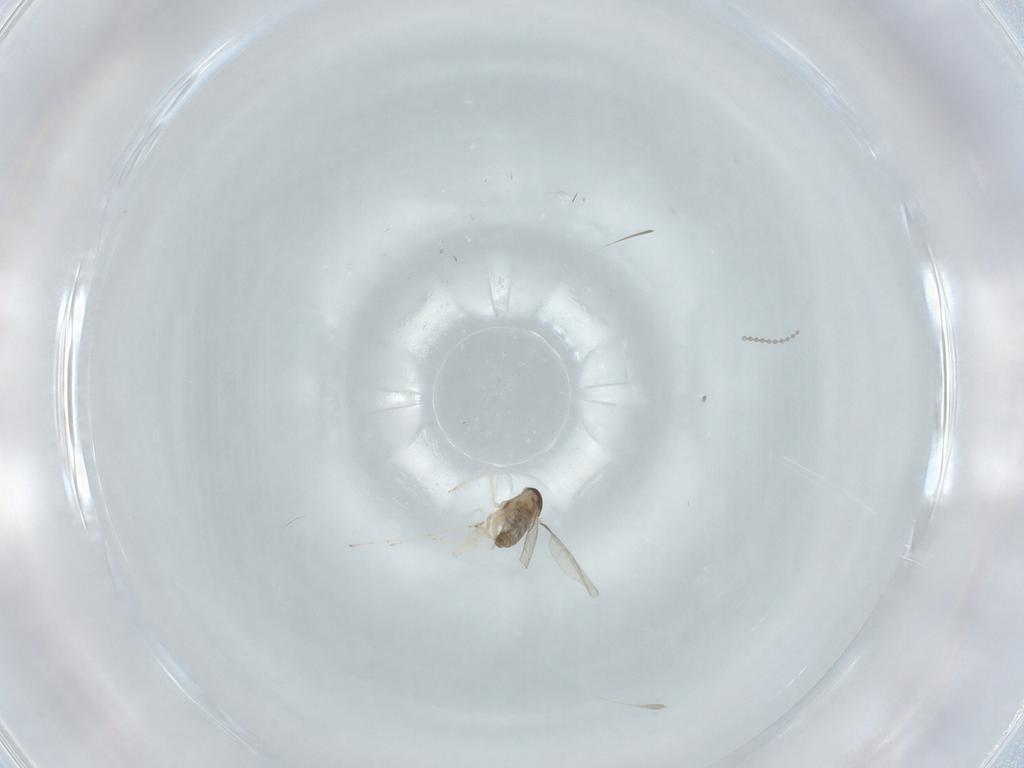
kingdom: Animalia
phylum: Arthropoda
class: Insecta
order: Diptera
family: Cecidomyiidae
